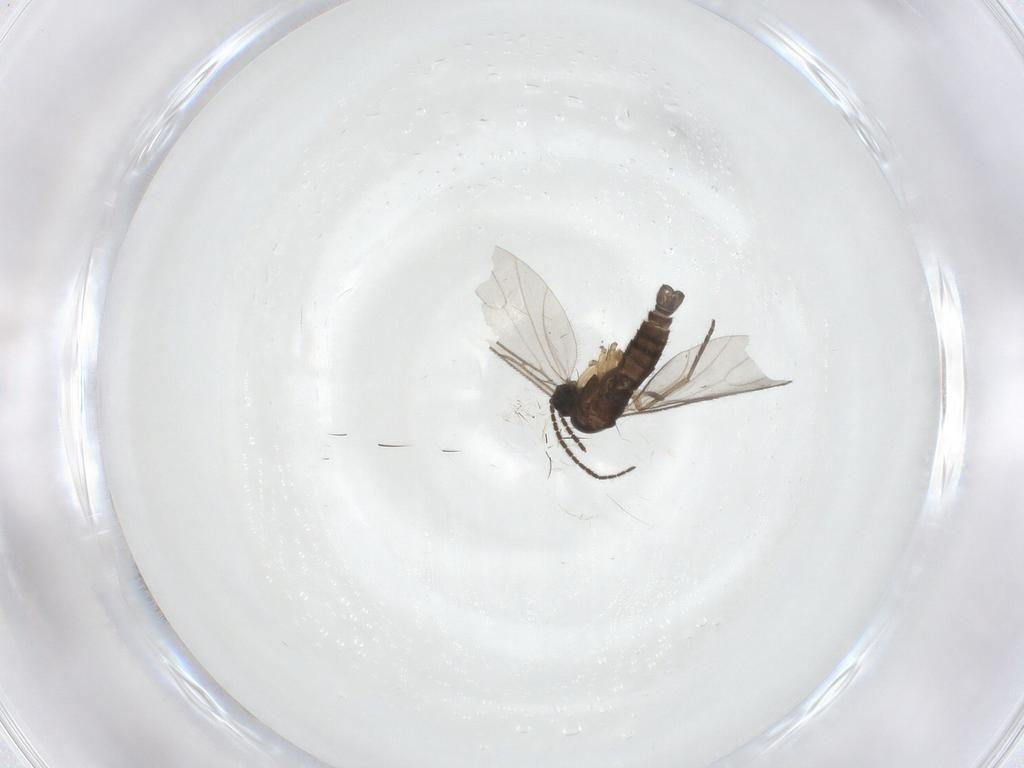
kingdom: Animalia
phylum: Arthropoda
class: Insecta
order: Diptera
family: Sciaridae
